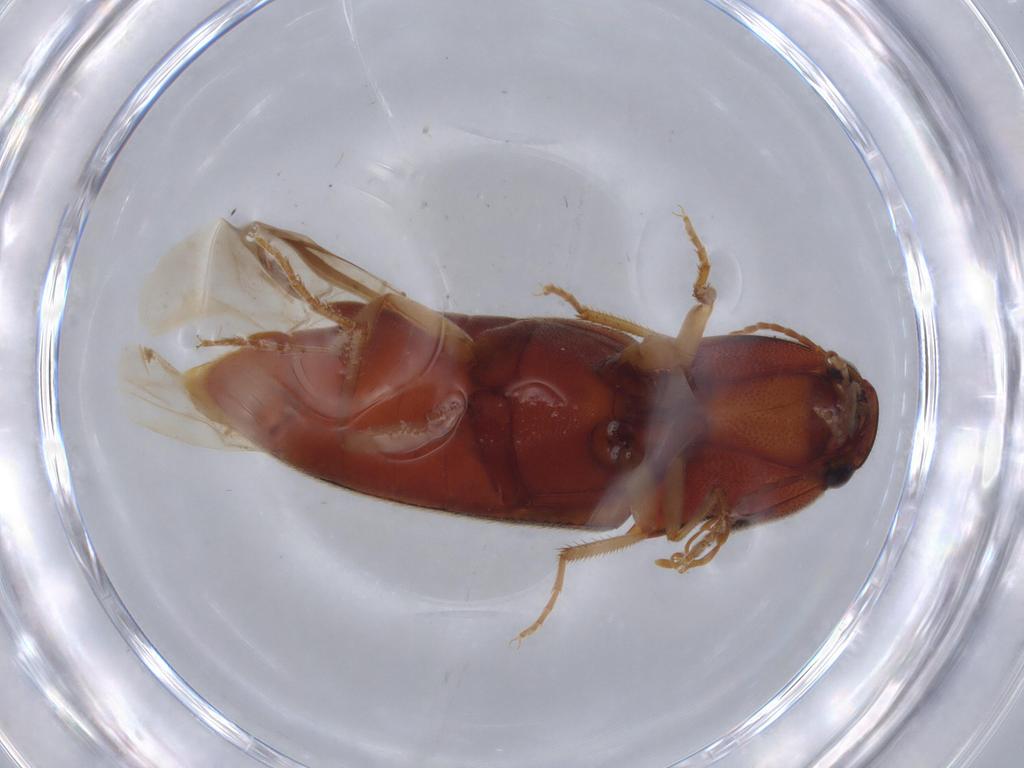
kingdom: Animalia
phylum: Arthropoda
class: Insecta
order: Coleoptera
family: Elateridae
